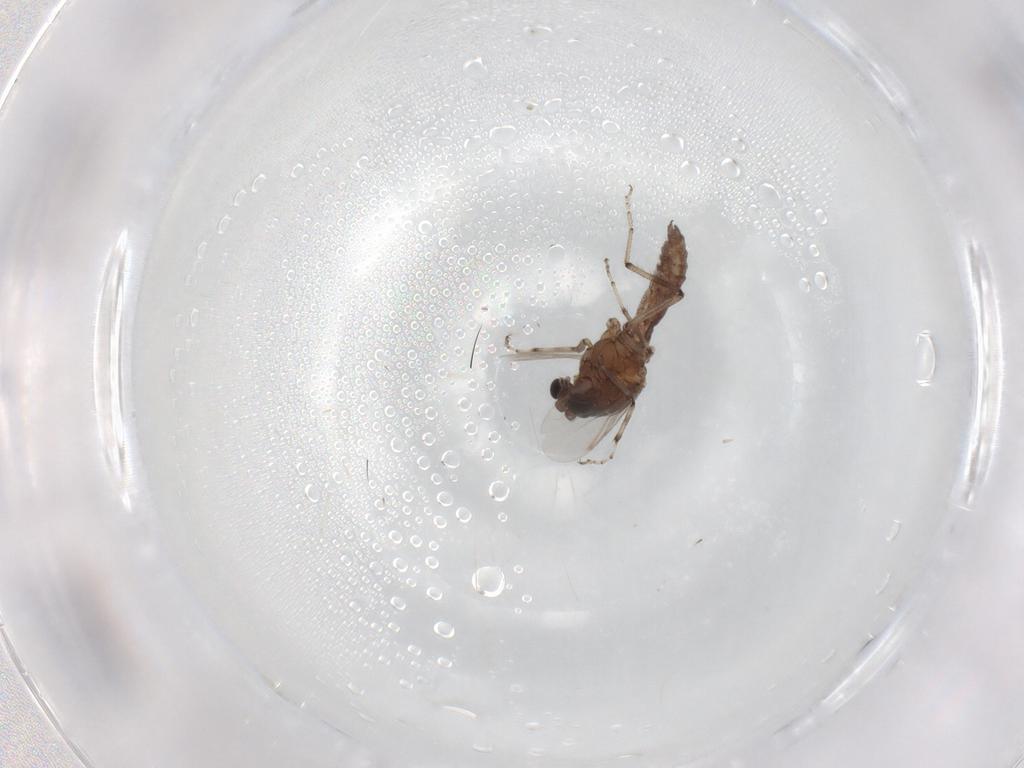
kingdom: Animalia
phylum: Arthropoda
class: Insecta
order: Diptera
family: Ceratopogonidae
